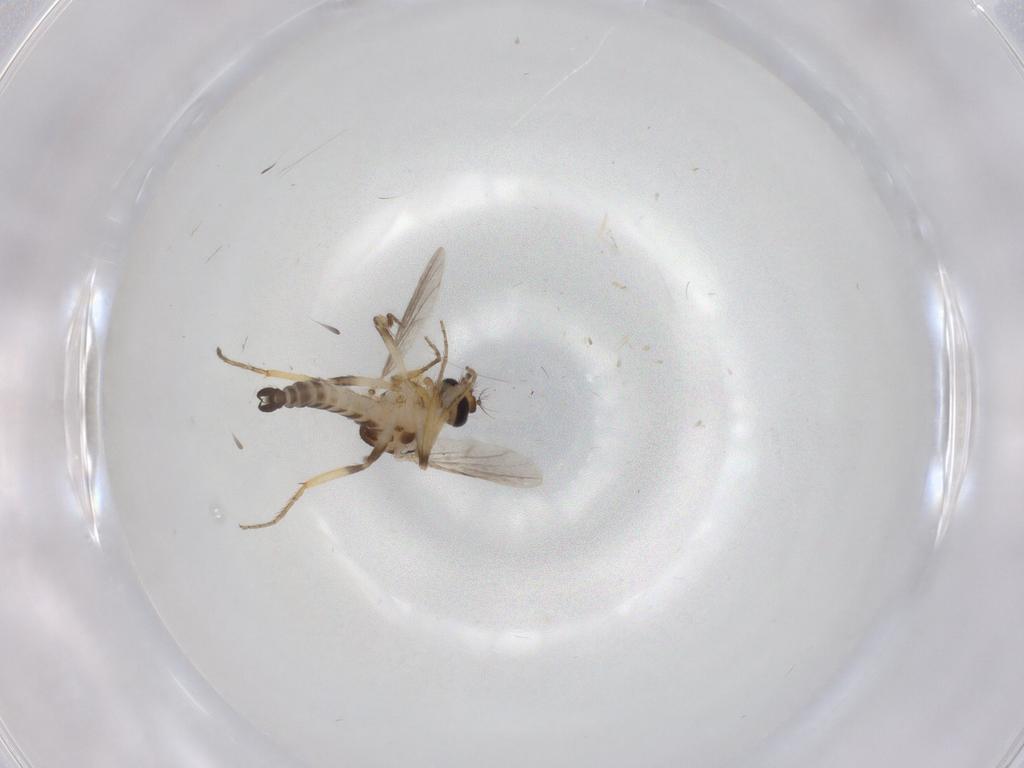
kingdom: Animalia
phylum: Arthropoda
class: Insecta
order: Diptera
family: Ceratopogonidae
